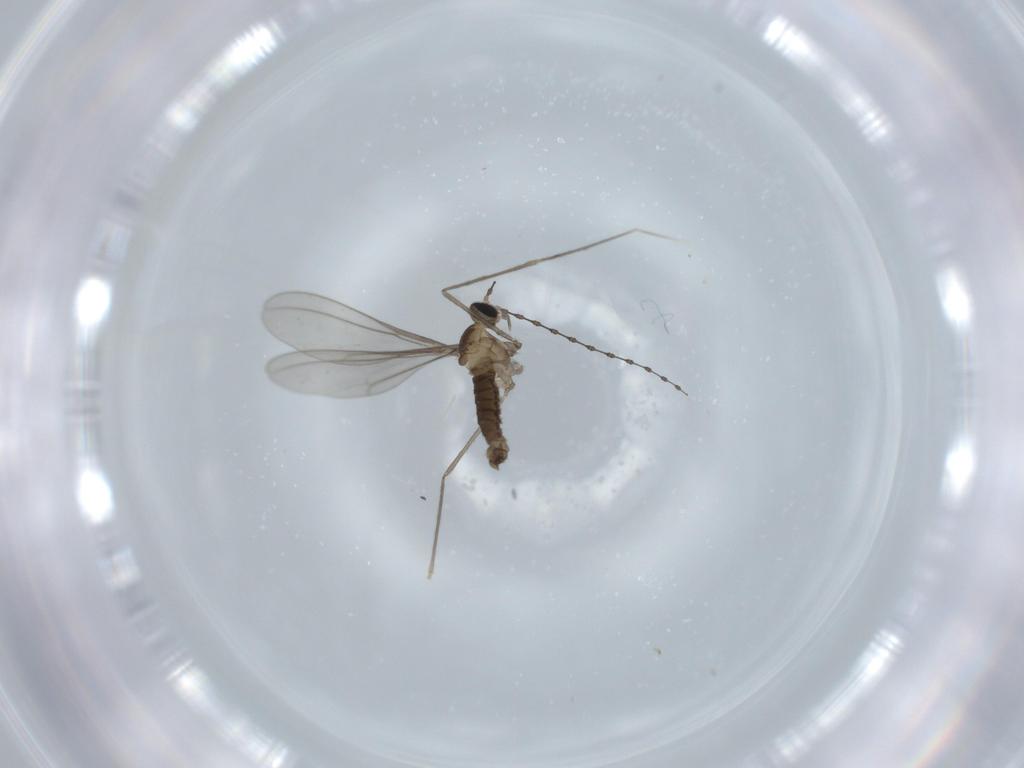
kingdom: Animalia
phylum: Arthropoda
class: Insecta
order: Diptera
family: Cecidomyiidae
